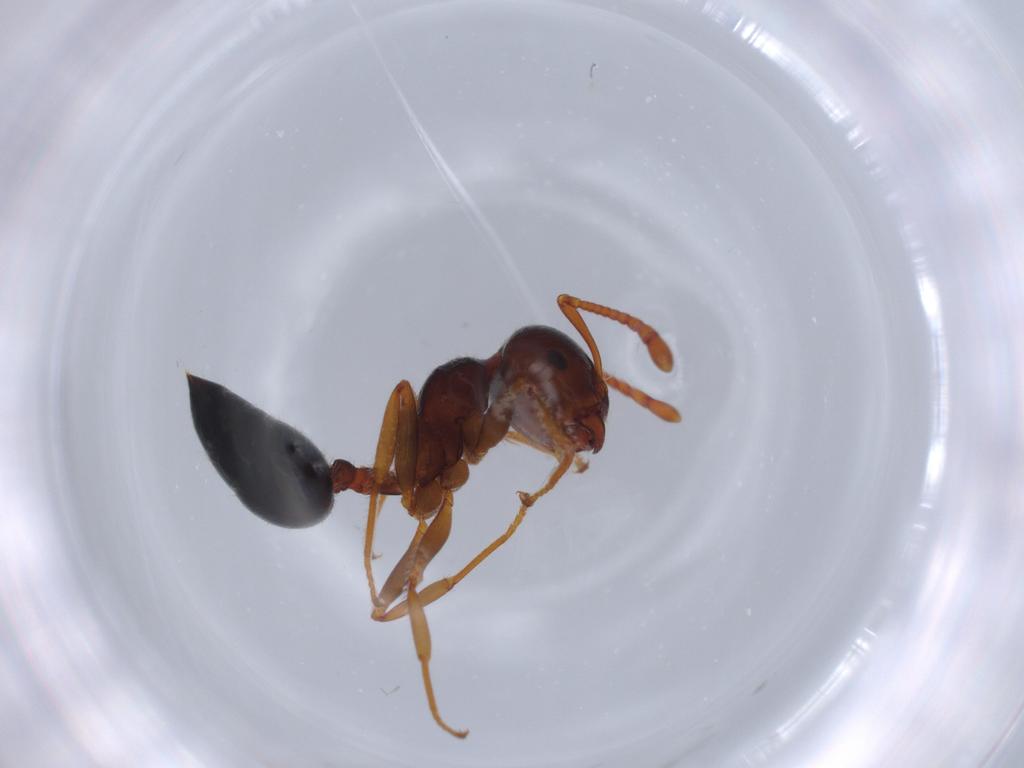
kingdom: Animalia
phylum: Arthropoda
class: Insecta
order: Hymenoptera
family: Formicidae
